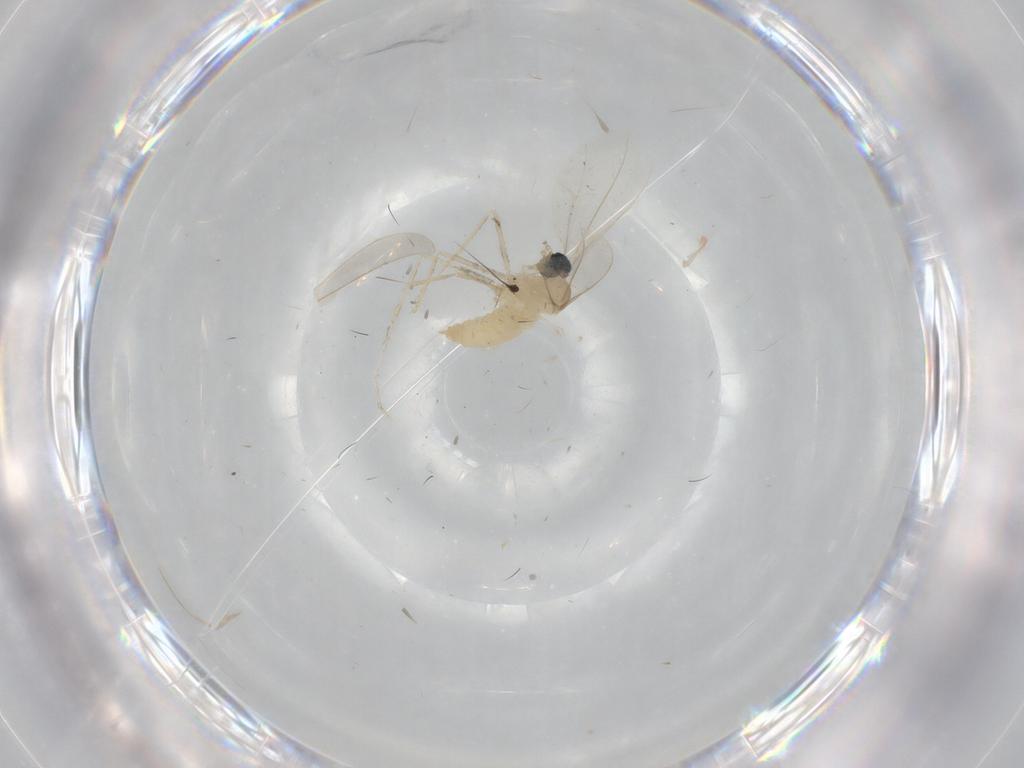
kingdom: Animalia
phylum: Arthropoda
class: Insecta
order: Diptera
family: Cecidomyiidae
